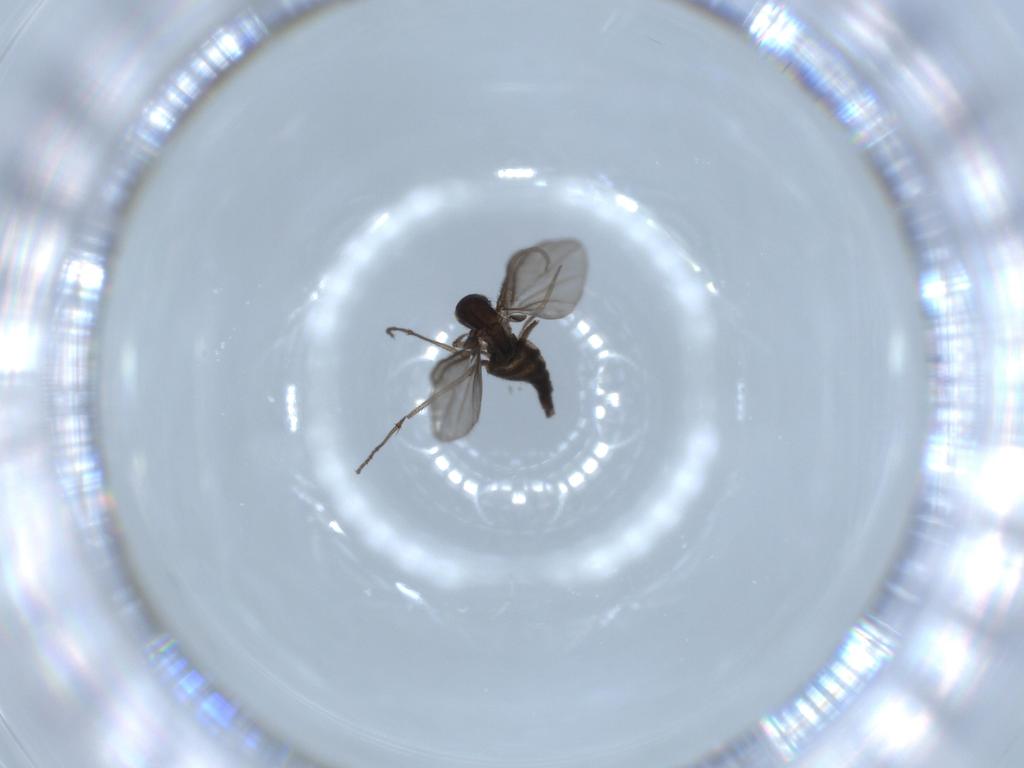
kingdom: Animalia
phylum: Arthropoda
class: Insecta
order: Diptera
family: Sciaridae
